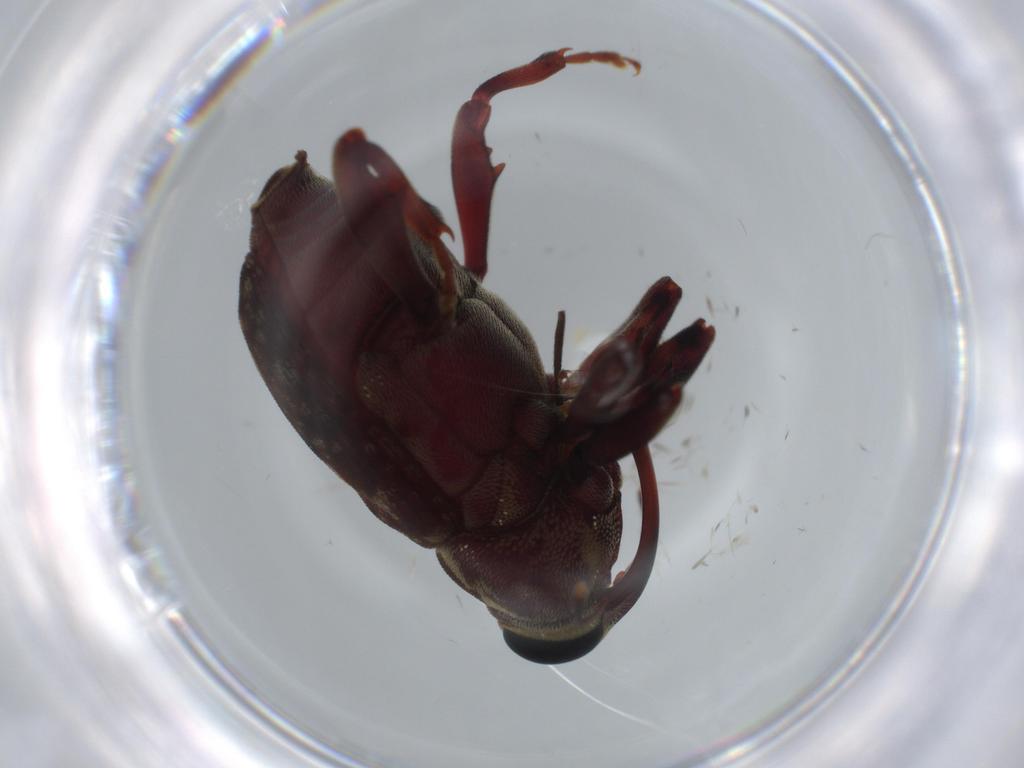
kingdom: Animalia
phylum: Arthropoda
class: Insecta
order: Coleoptera
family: Curculionidae
